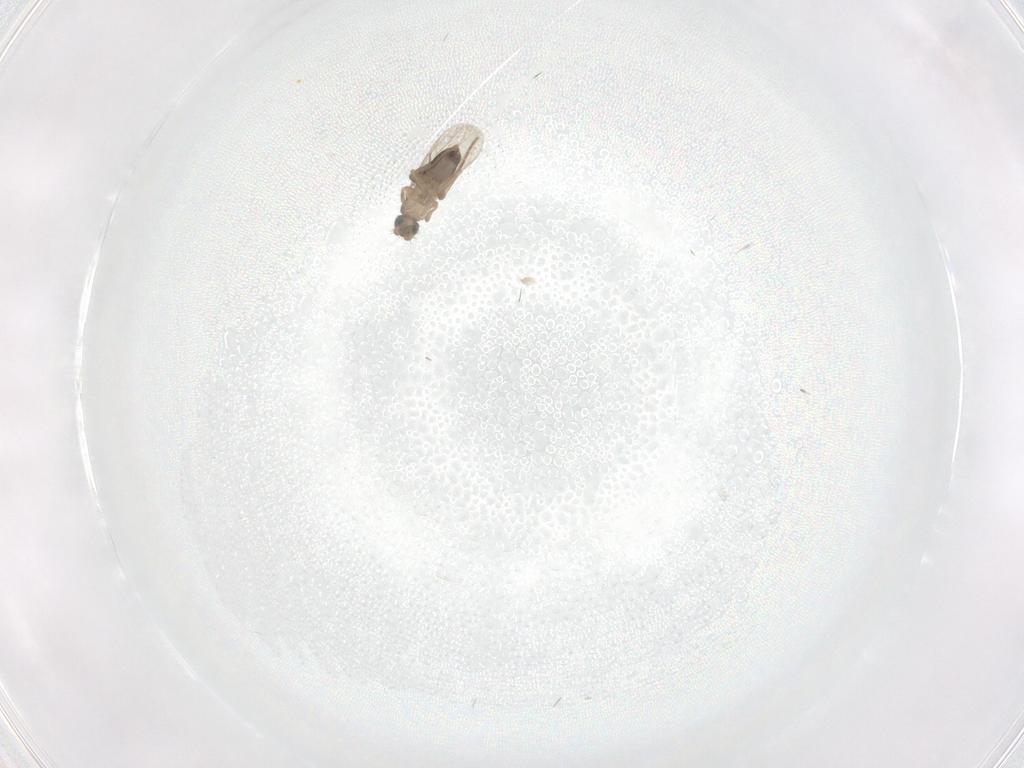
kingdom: Animalia
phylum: Arthropoda
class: Insecta
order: Diptera
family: Phoridae
